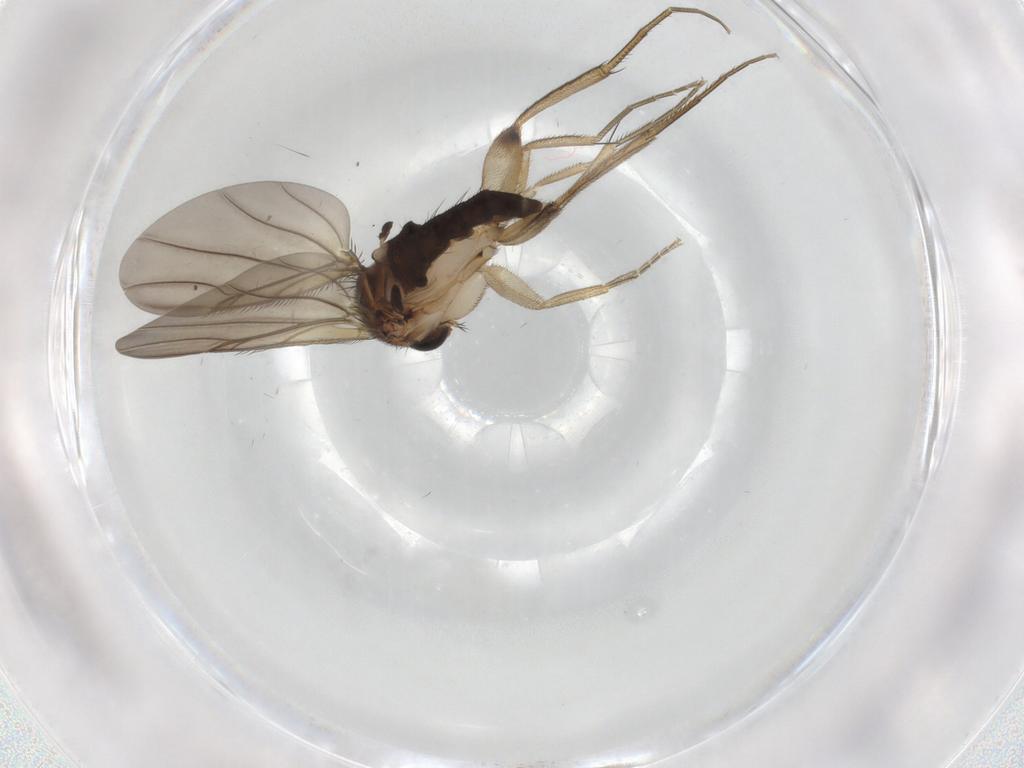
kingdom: Animalia
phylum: Arthropoda
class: Insecta
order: Diptera
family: Phoridae
